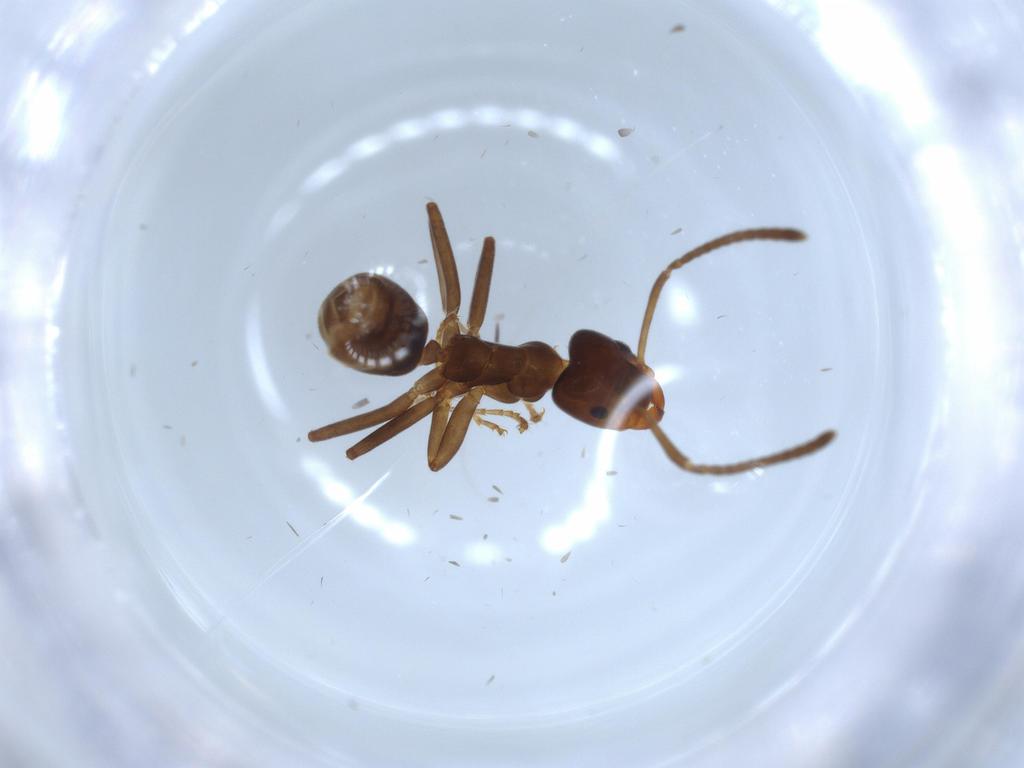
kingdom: Animalia
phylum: Arthropoda
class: Insecta
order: Hymenoptera
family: Formicidae
